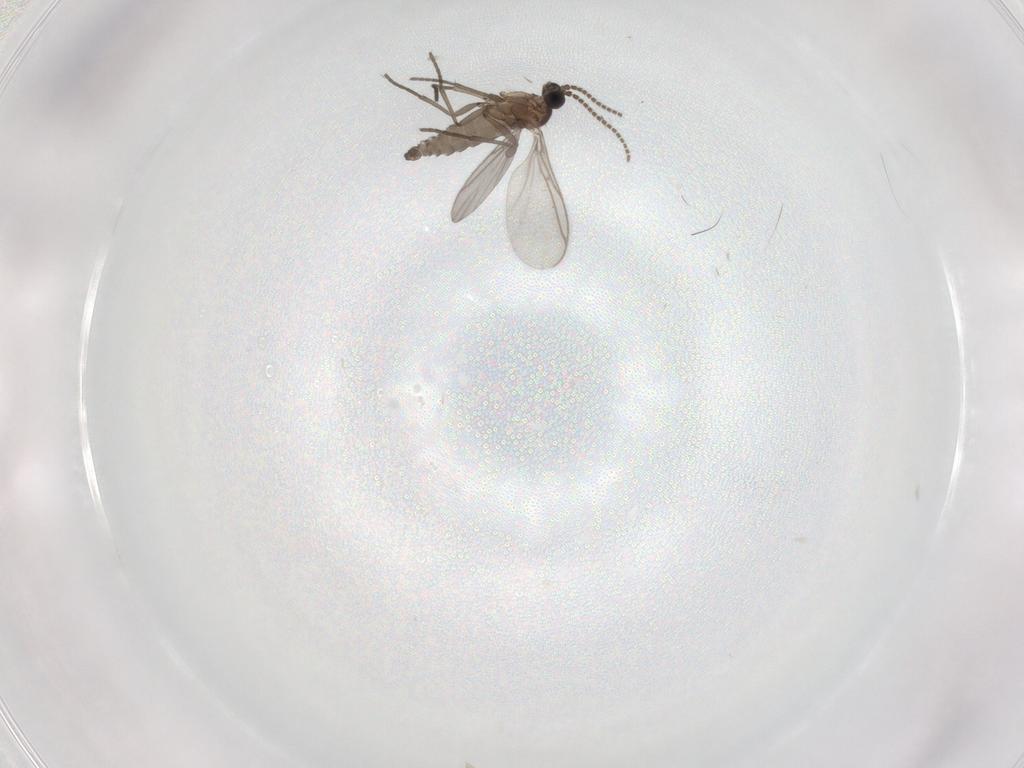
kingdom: Animalia
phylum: Arthropoda
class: Insecta
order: Diptera
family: Sciaridae
